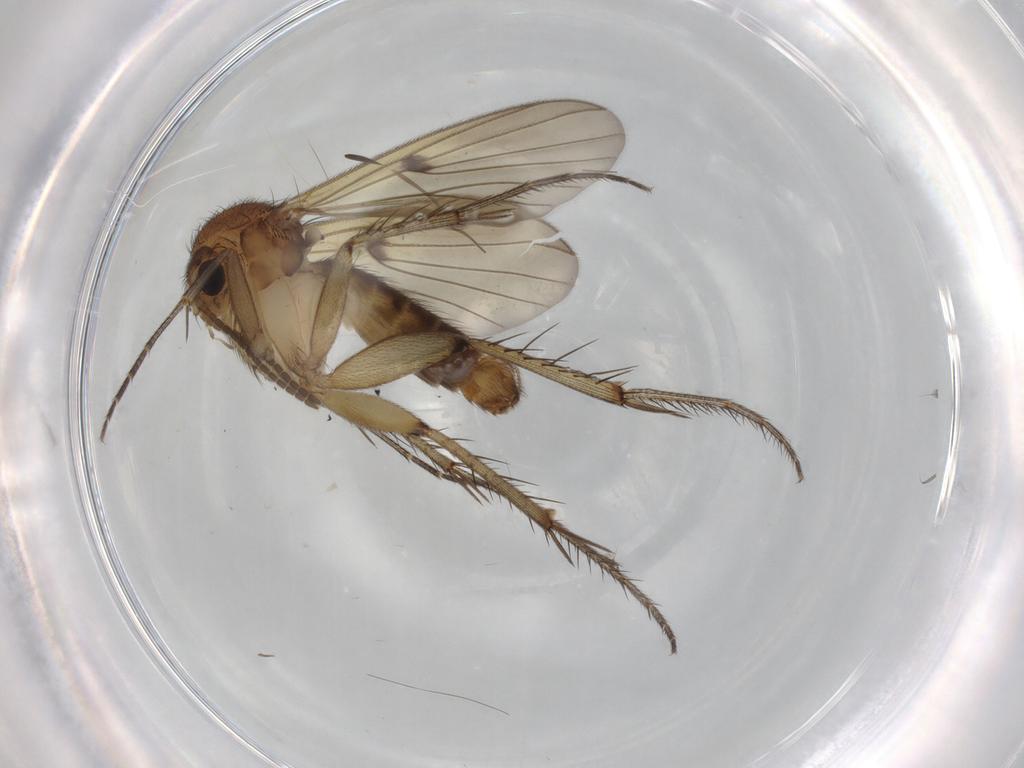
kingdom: Animalia
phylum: Arthropoda
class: Insecta
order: Diptera
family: Mycetophilidae
